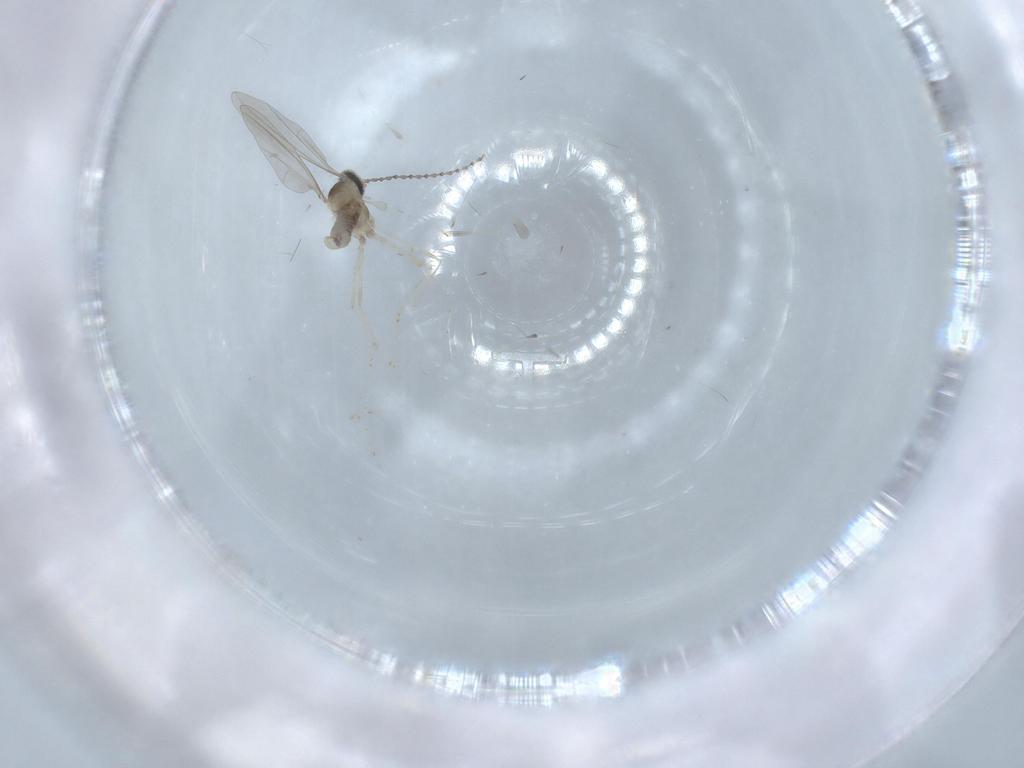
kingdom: Animalia
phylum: Arthropoda
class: Insecta
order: Diptera
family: Cecidomyiidae
